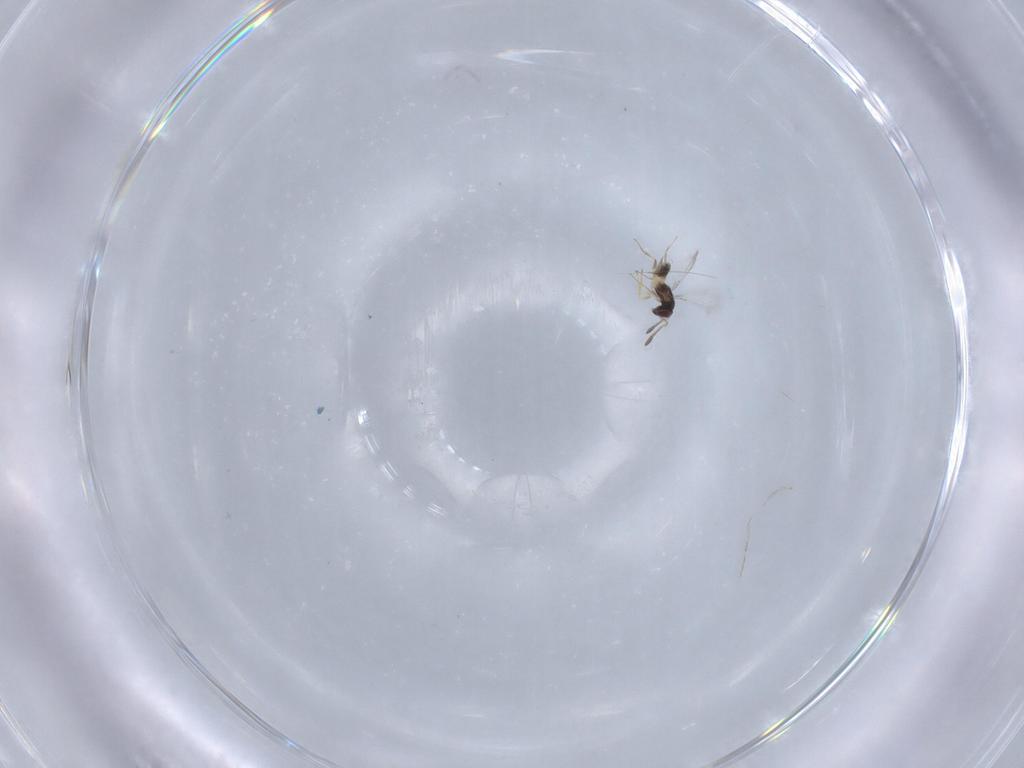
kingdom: Animalia
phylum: Arthropoda
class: Insecta
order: Hymenoptera
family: Mymaridae
